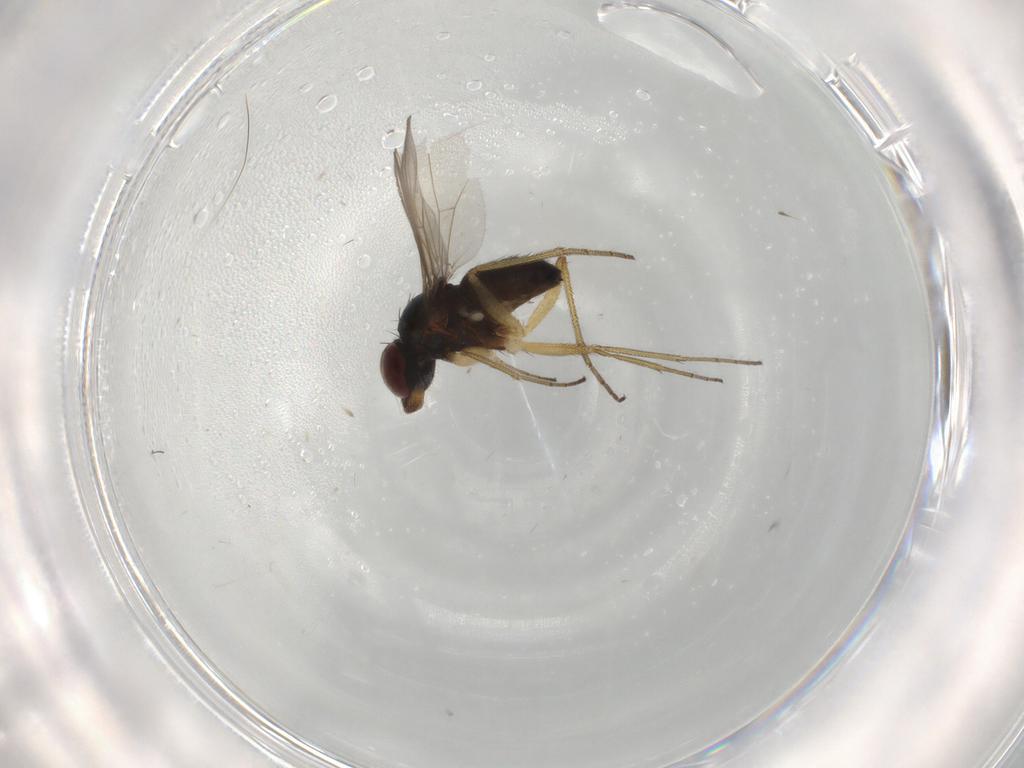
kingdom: Animalia
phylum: Arthropoda
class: Insecta
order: Diptera
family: Dolichopodidae
